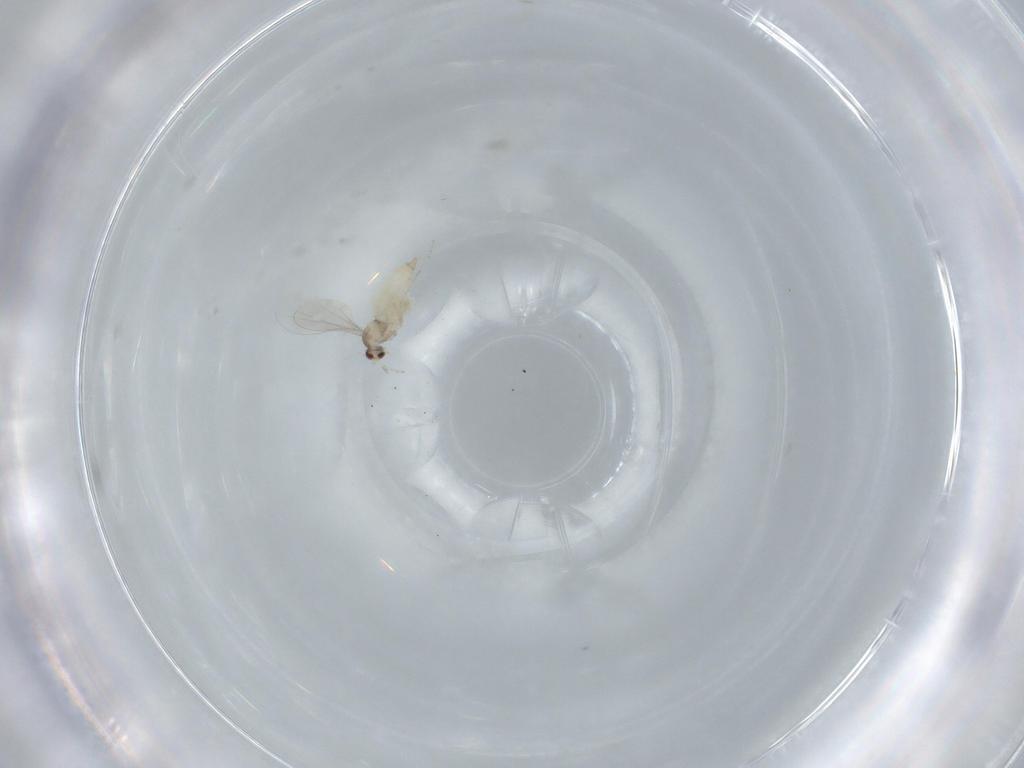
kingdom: Animalia
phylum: Arthropoda
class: Insecta
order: Diptera
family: Cecidomyiidae
